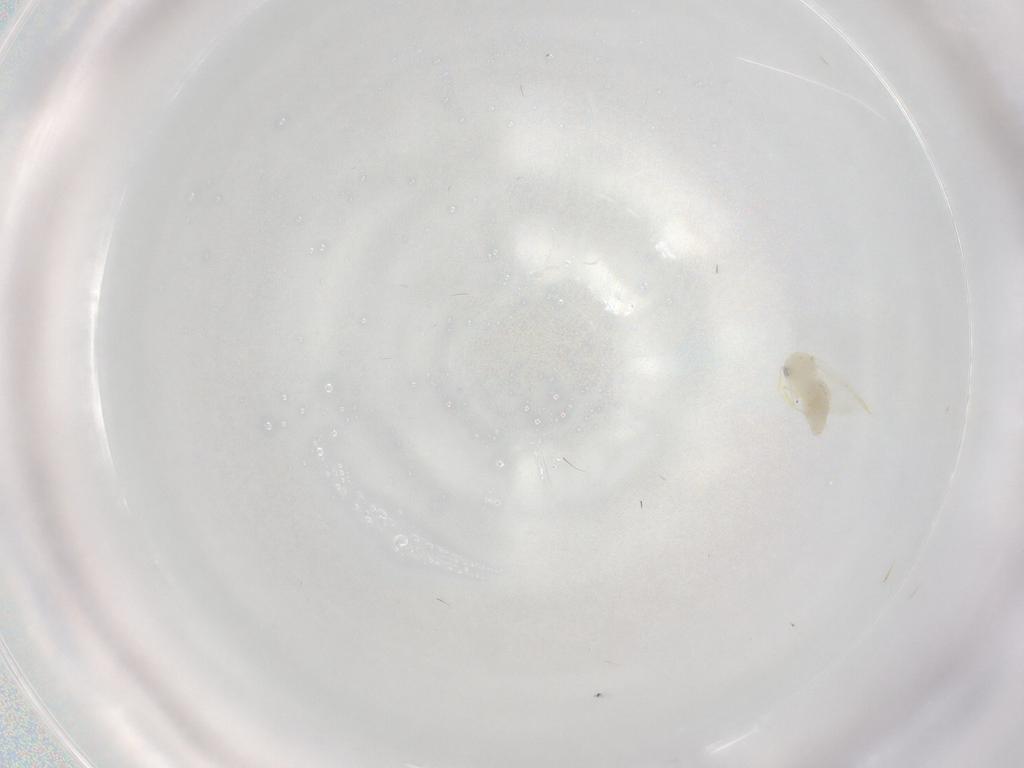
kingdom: Animalia
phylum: Arthropoda
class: Insecta
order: Hemiptera
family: Aleyrodidae
